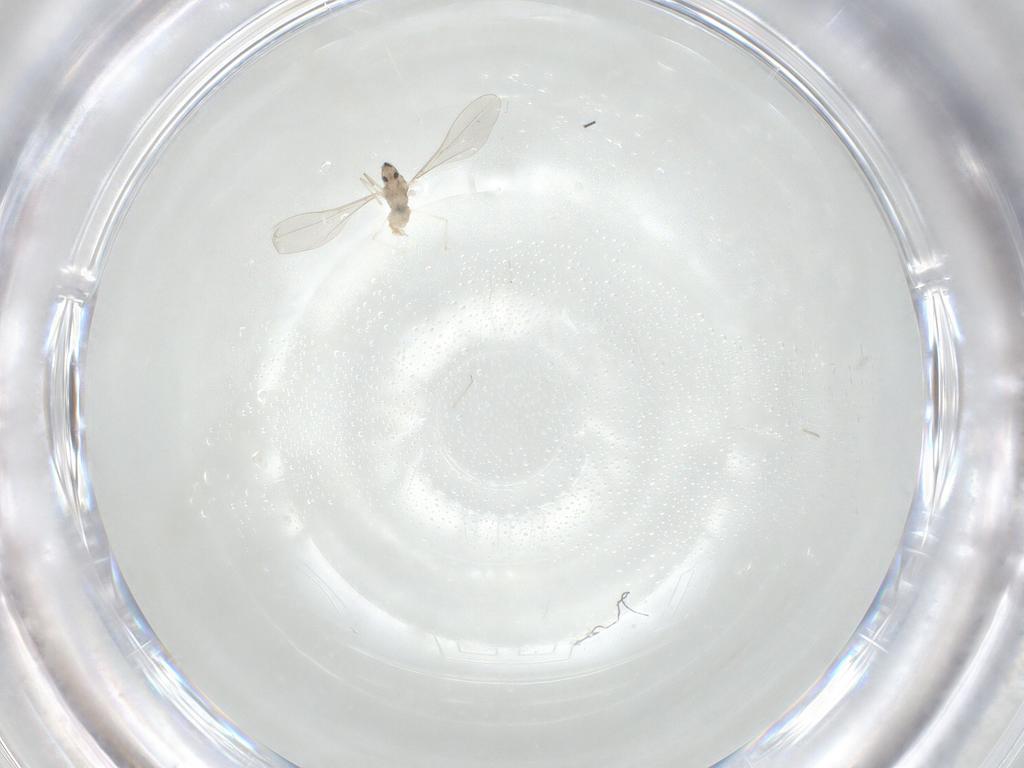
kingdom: Animalia
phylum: Arthropoda
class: Insecta
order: Diptera
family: Cecidomyiidae
